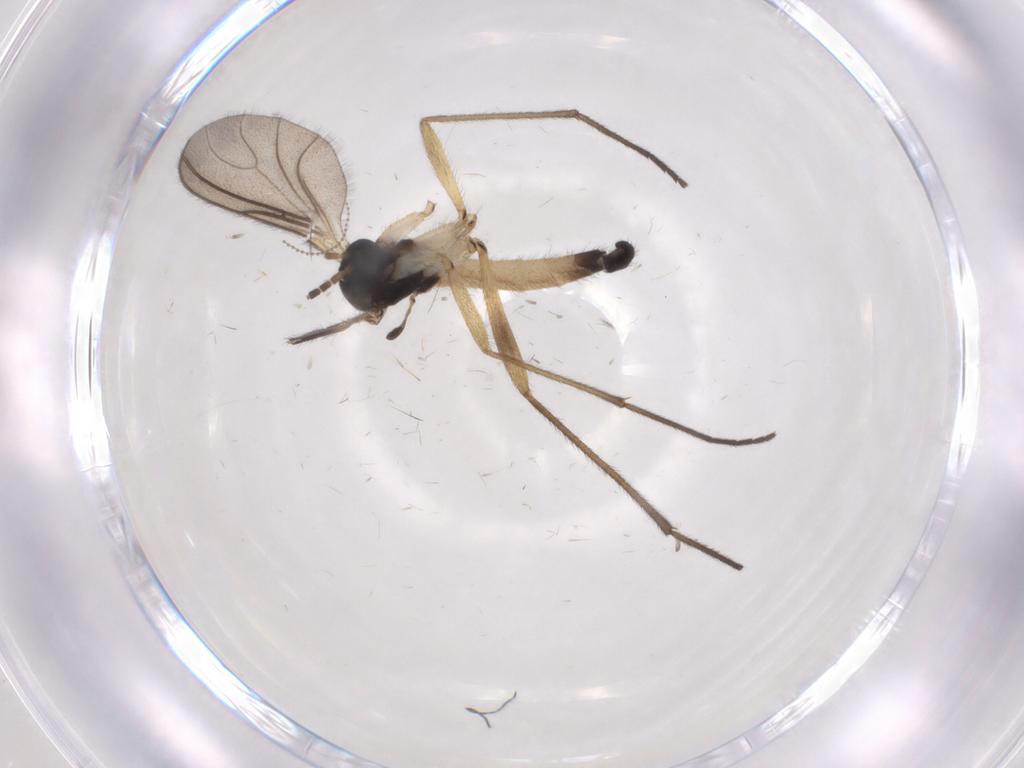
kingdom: Animalia
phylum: Arthropoda
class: Insecta
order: Diptera
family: Sciaridae
